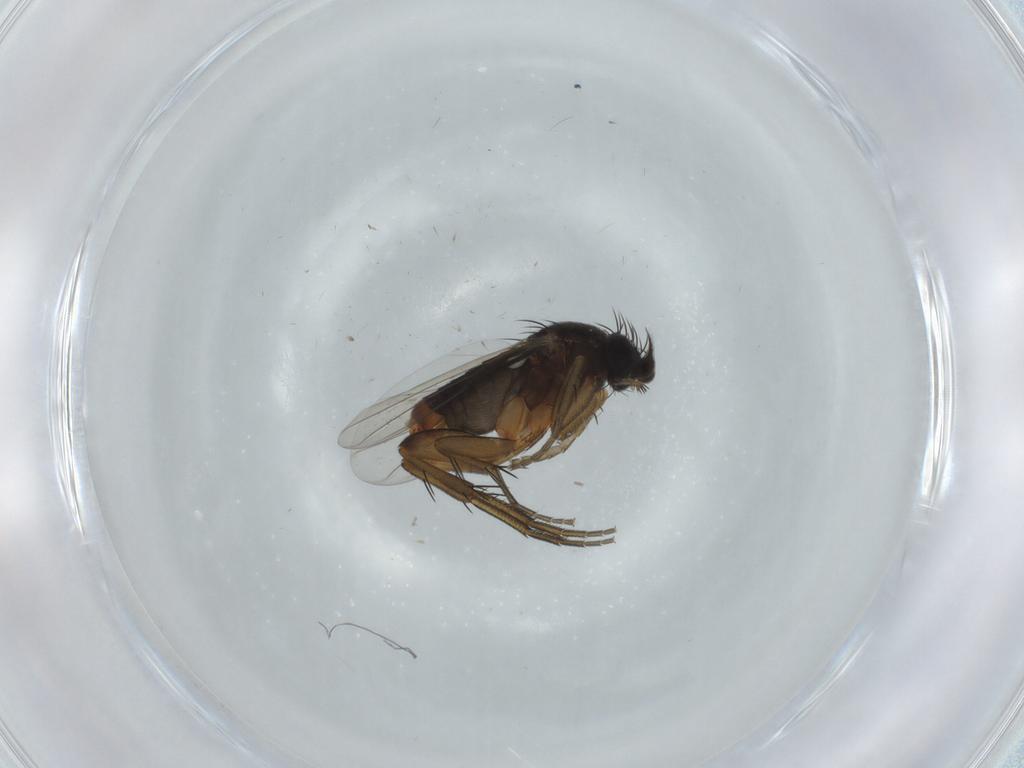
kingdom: Animalia
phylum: Arthropoda
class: Insecta
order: Diptera
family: Phoridae
